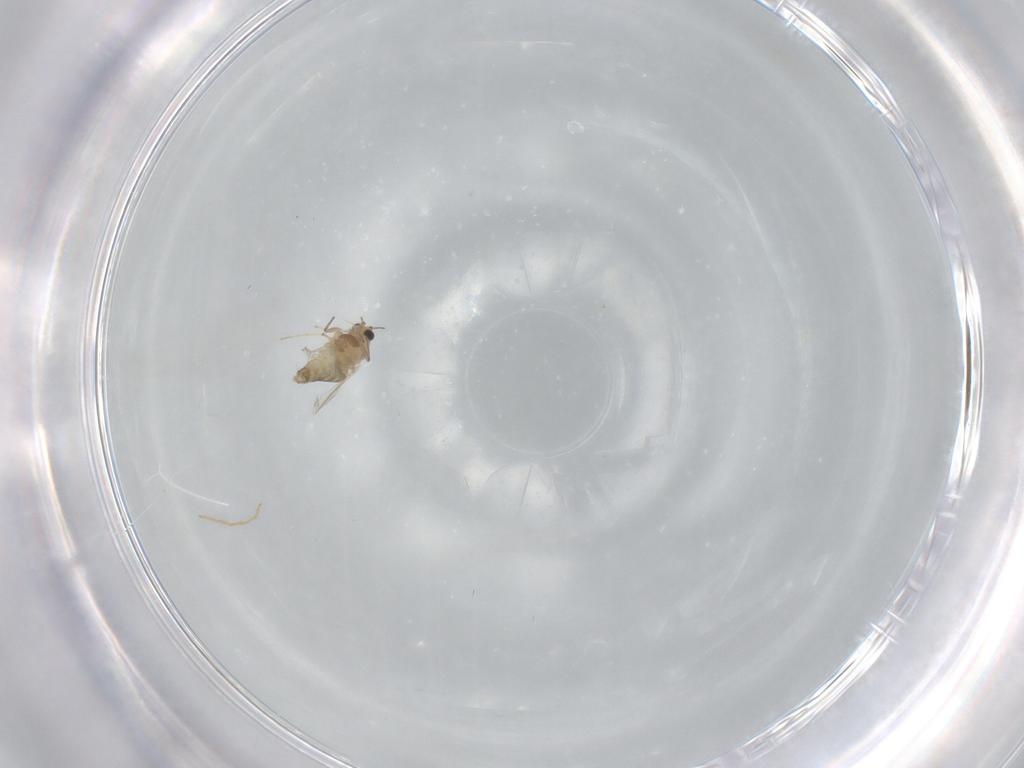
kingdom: Animalia
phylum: Arthropoda
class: Insecta
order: Diptera
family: Chironomidae
